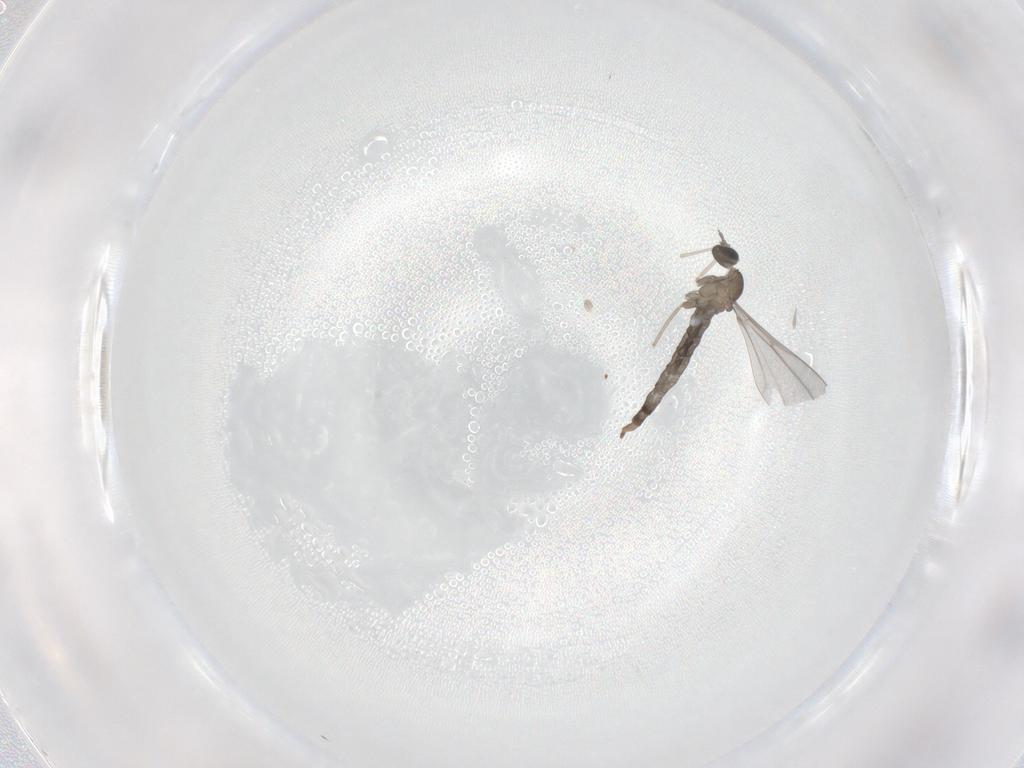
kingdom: Animalia
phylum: Arthropoda
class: Insecta
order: Diptera
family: Cecidomyiidae
